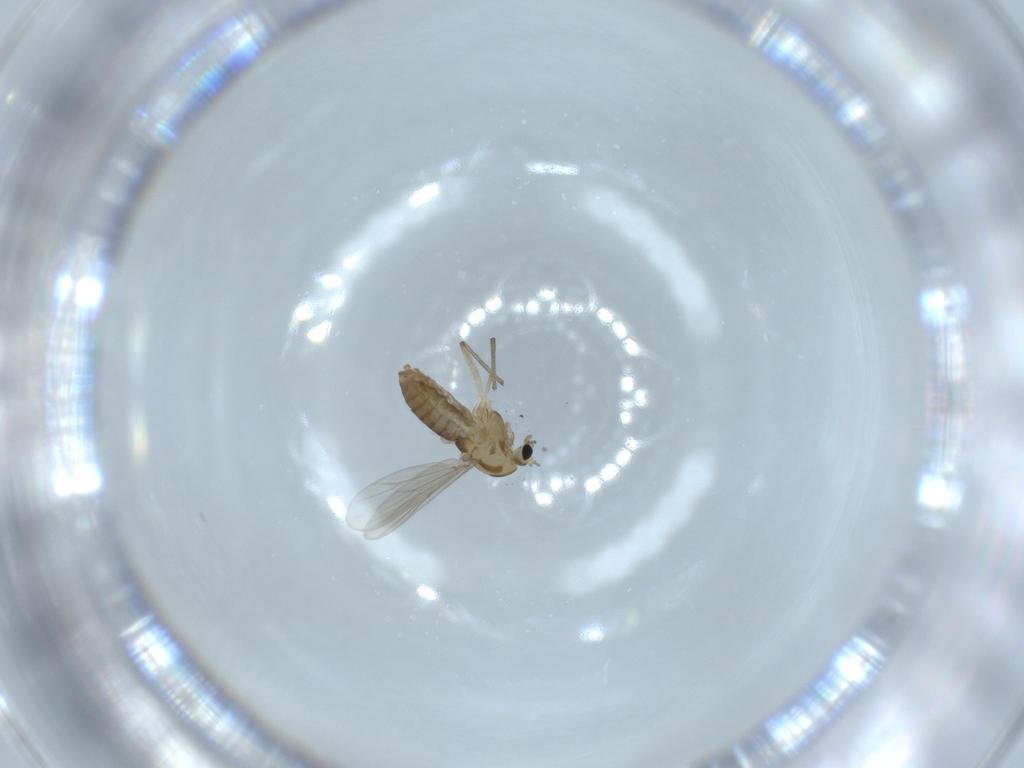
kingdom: Animalia
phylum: Arthropoda
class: Insecta
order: Diptera
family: Chironomidae
